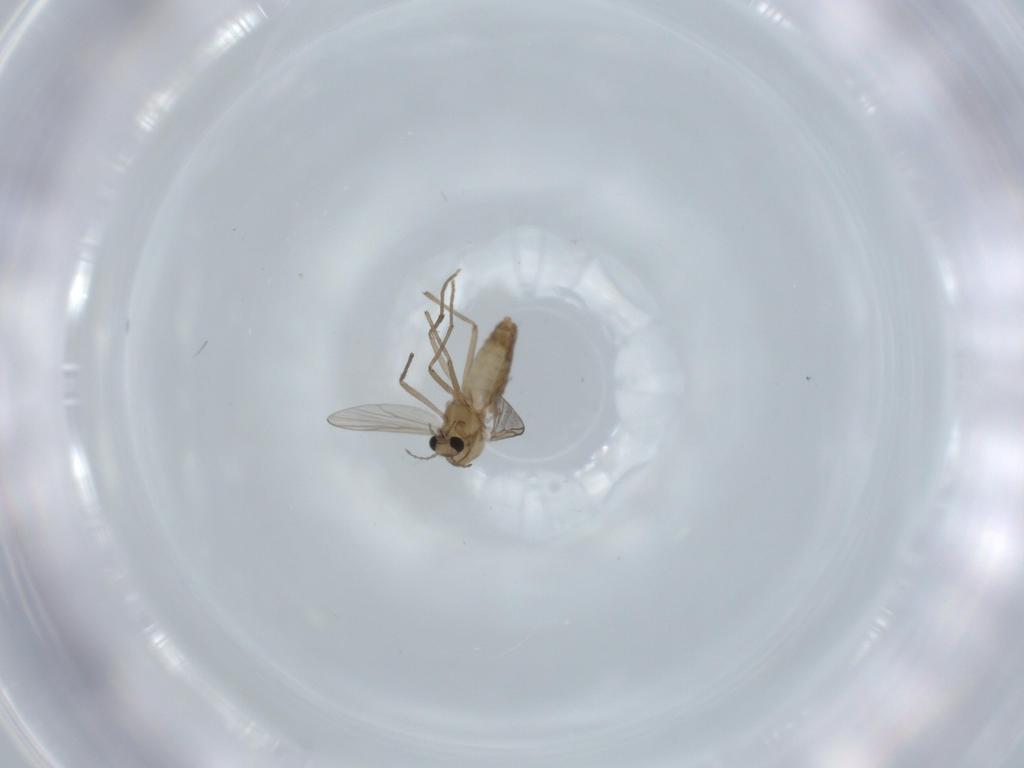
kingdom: Animalia
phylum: Arthropoda
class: Insecta
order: Diptera
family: Chironomidae
